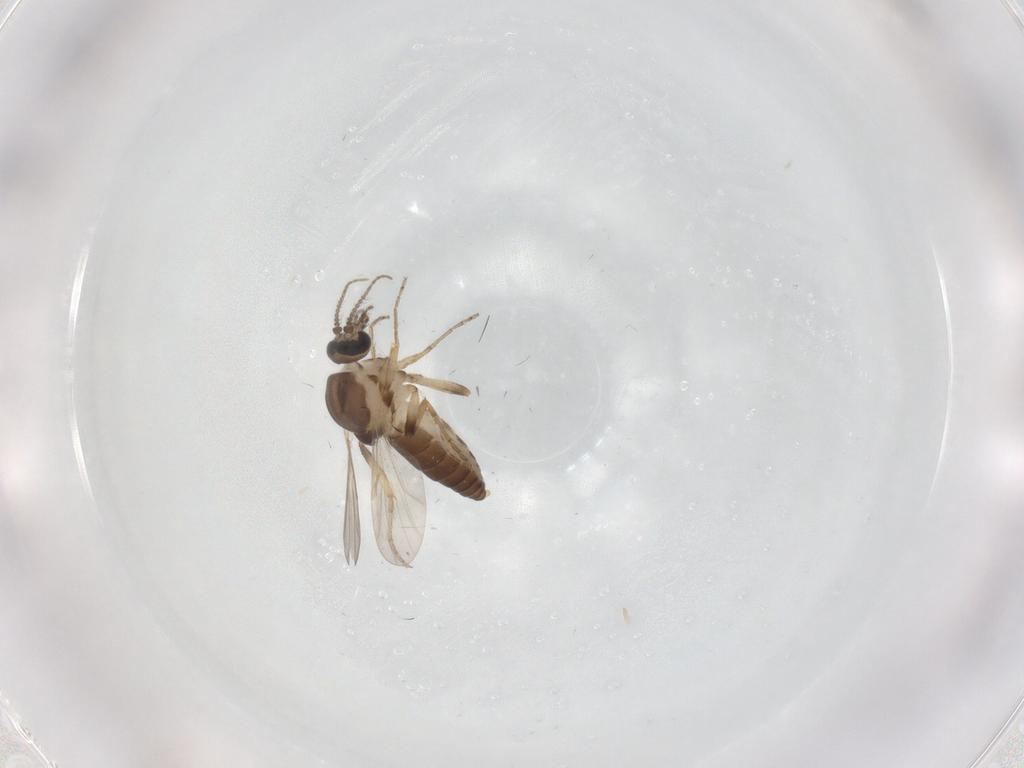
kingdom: Animalia
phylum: Arthropoda
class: Insecta
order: Diptera
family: Ceratopogonidae
